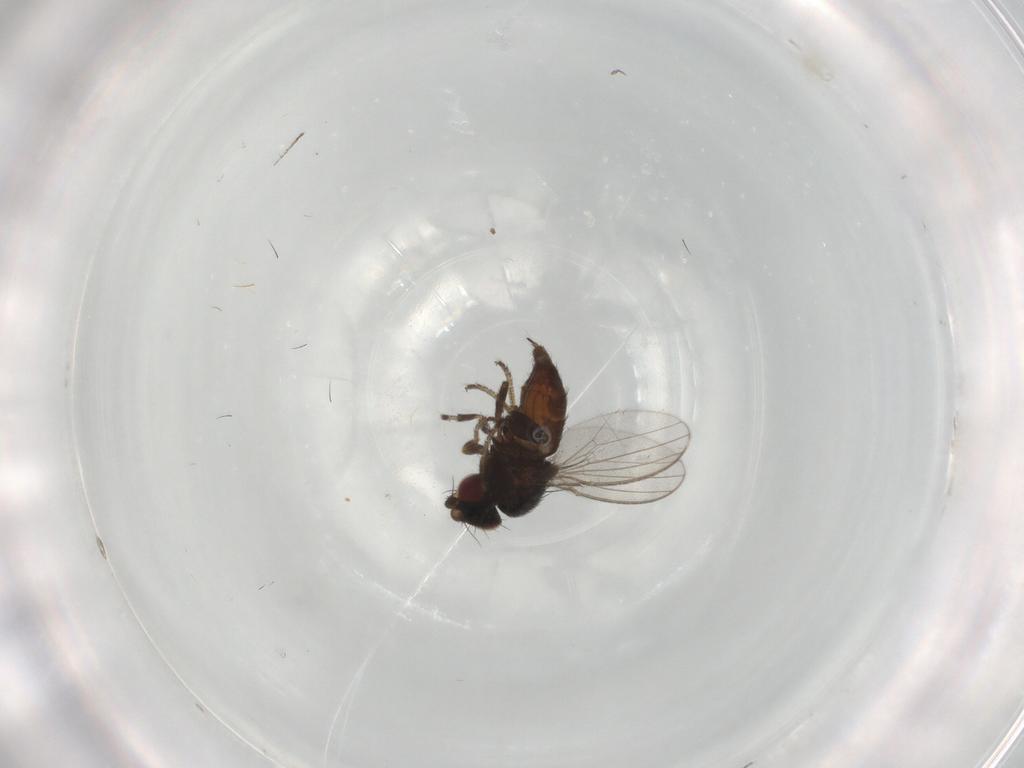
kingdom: Animalia
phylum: Arthropoda
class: Insecta
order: Diptera
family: Milichiidae
